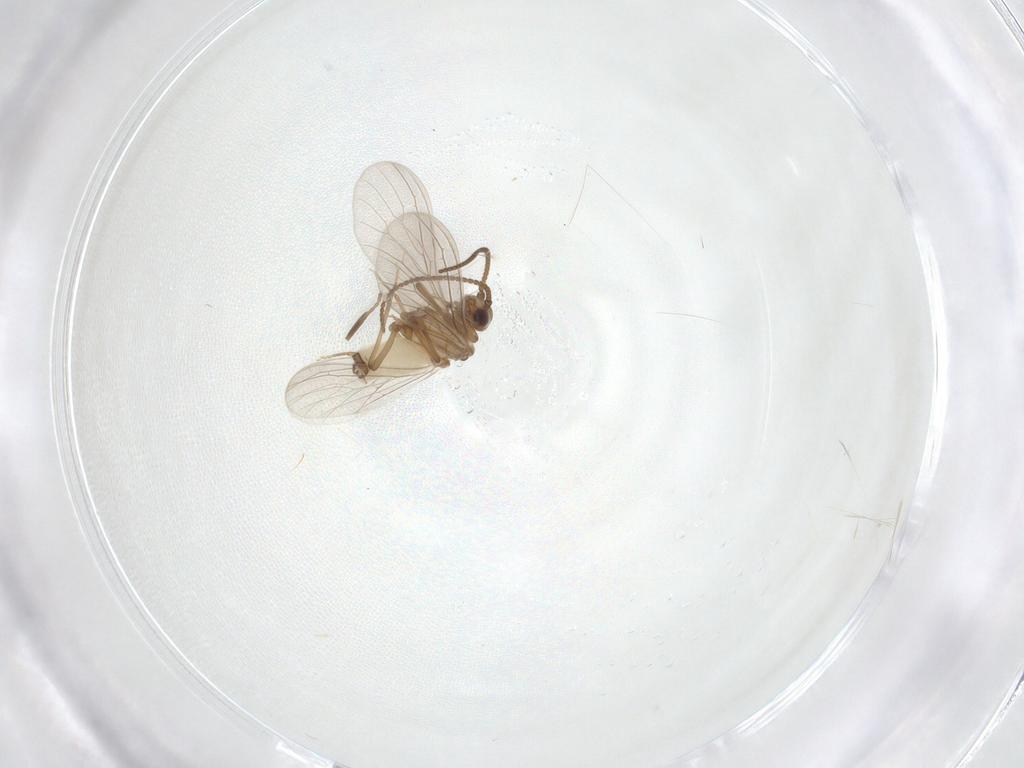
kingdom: Animalia
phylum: Arthropoda
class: Insecta
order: Neuroptera
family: Coniopterygidae
